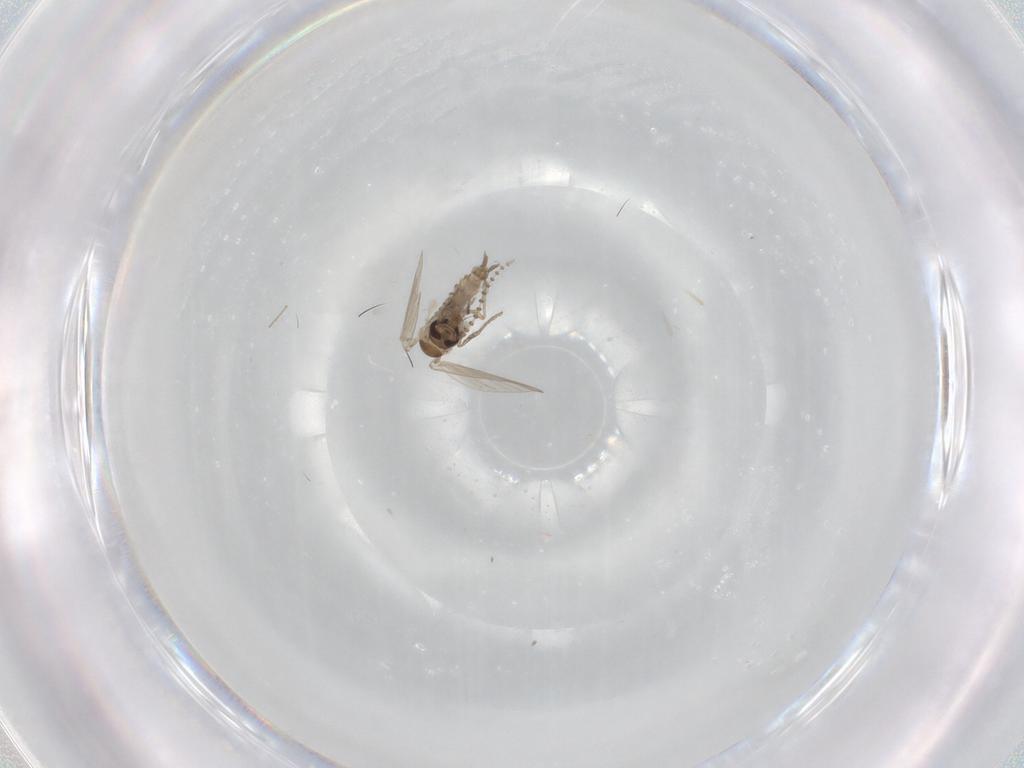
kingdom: Animalia
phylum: Arthropoda
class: Insecta
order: Diptera
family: Psychodidae
